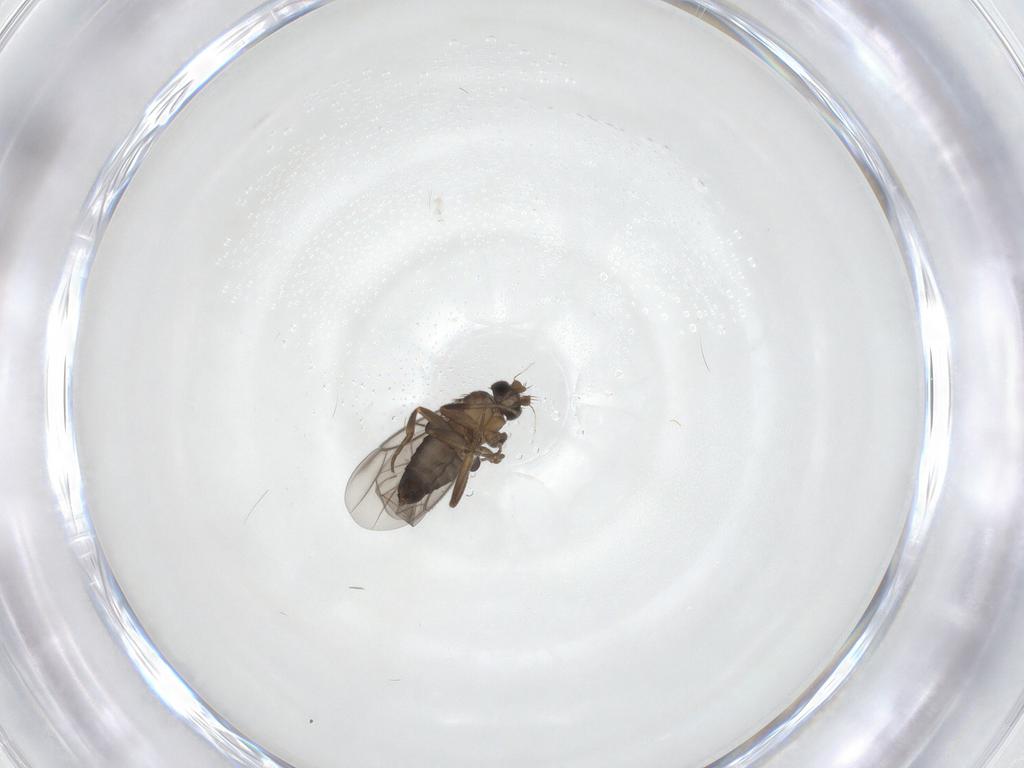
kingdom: Animalia
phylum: Arthropoda
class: Insecta
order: Diptera
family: Phoridae
